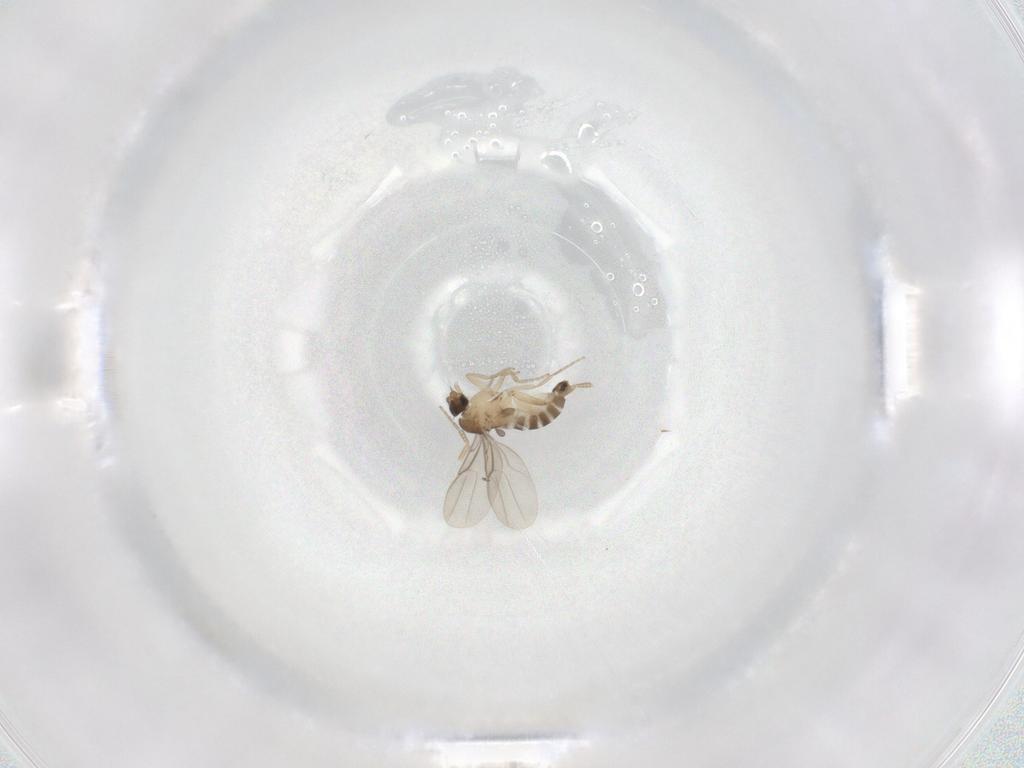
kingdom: Animalia
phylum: Arthropoda
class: Insecta
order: Diptera
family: Phoridae
